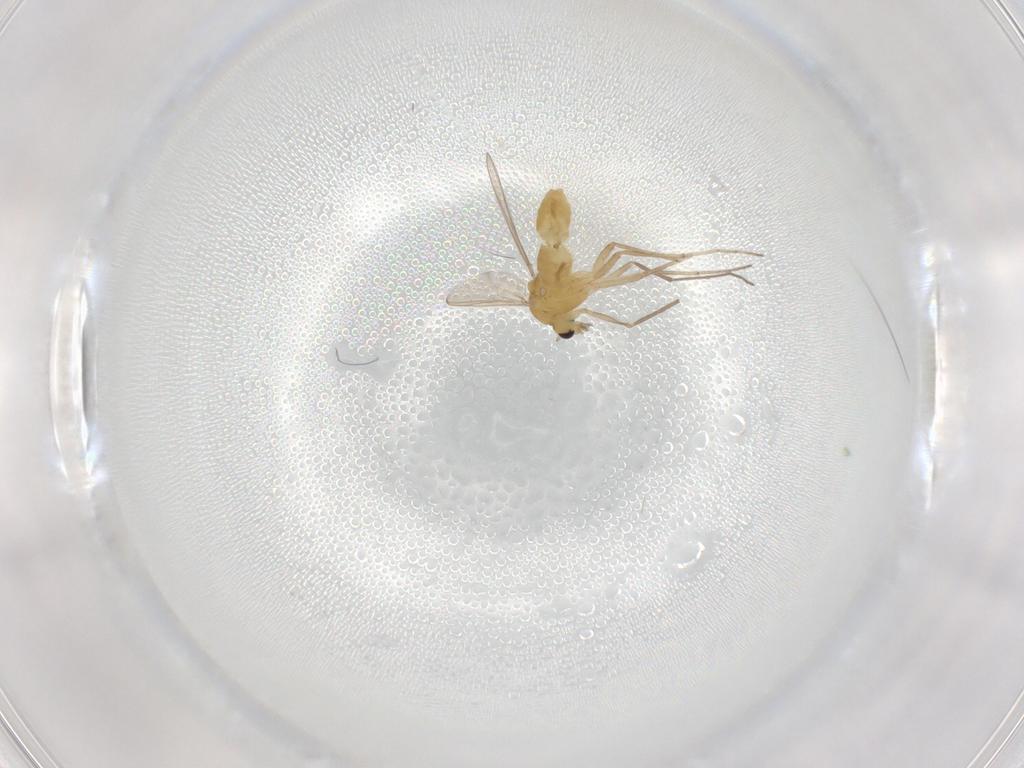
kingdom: Animalia
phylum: Arthropoda
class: Insecta
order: Diptera
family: Chironomidae
